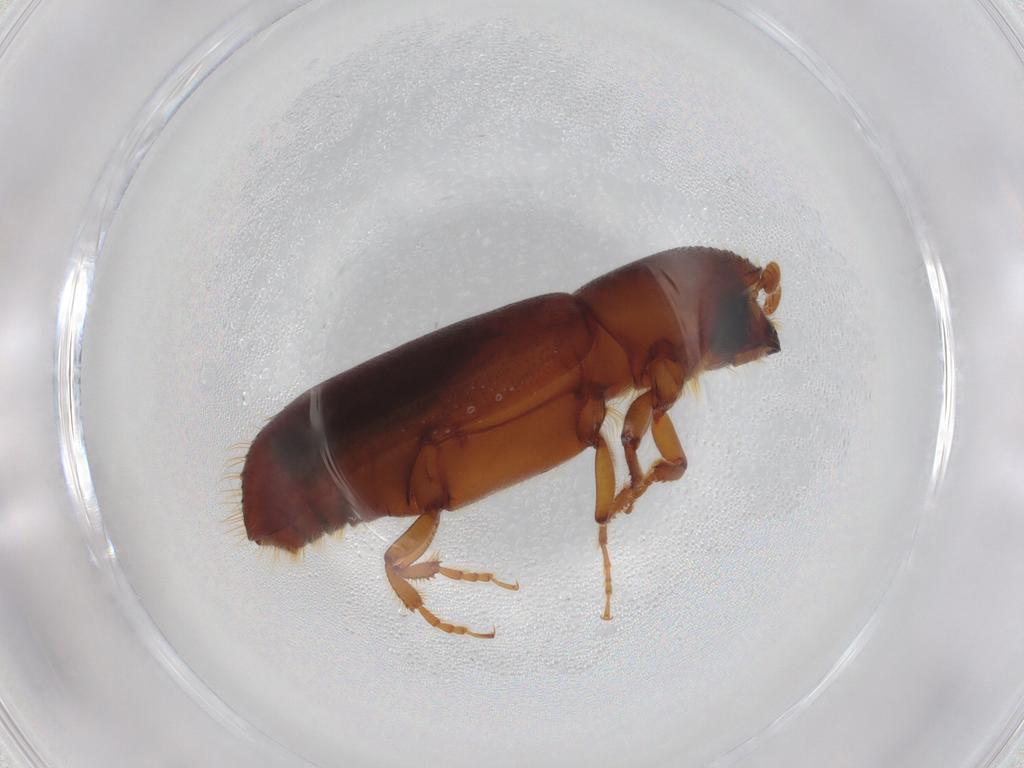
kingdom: Animalia
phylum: Arthropoda
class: Insecta
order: Coleoptera
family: Curculionidae
